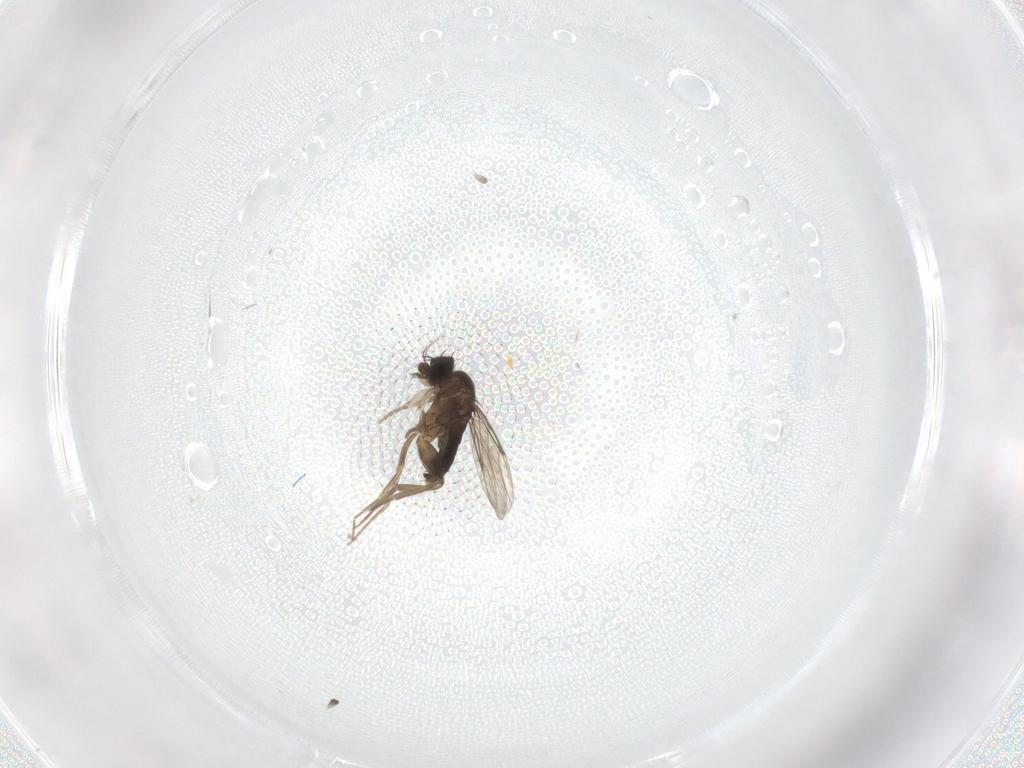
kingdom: Animalia
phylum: Arthropoda
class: Insecta
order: Diptera
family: Phoridae
